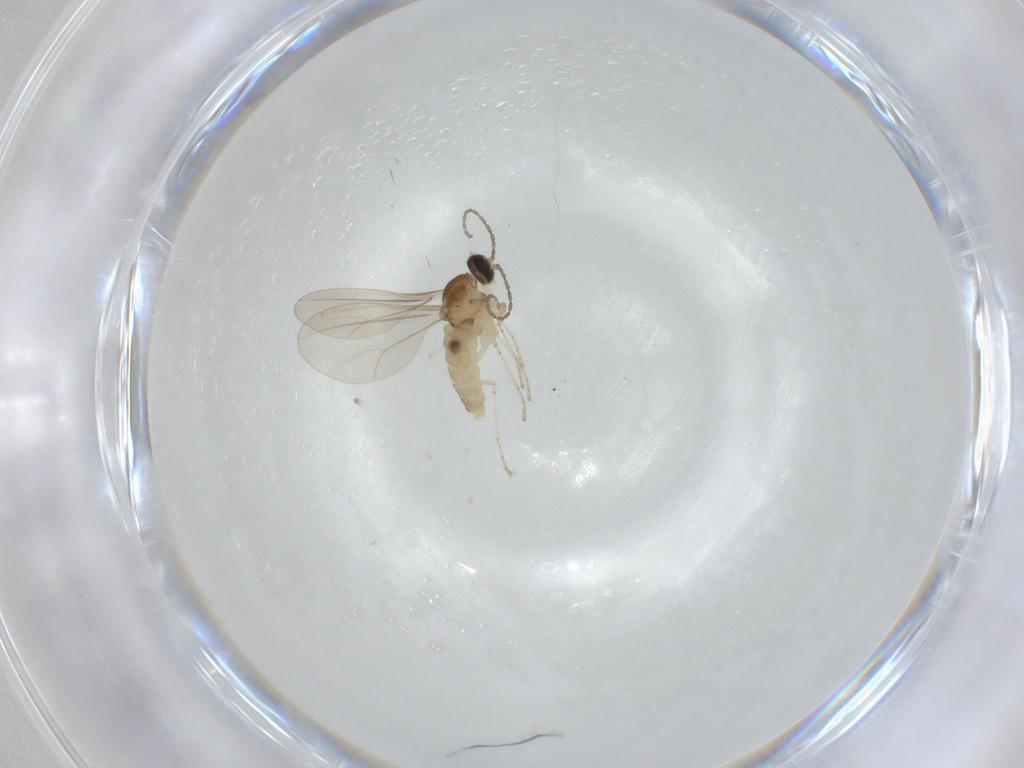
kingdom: Animalia
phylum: Arthropoda
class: Insecta
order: Diptera
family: Cecidomyiidae
